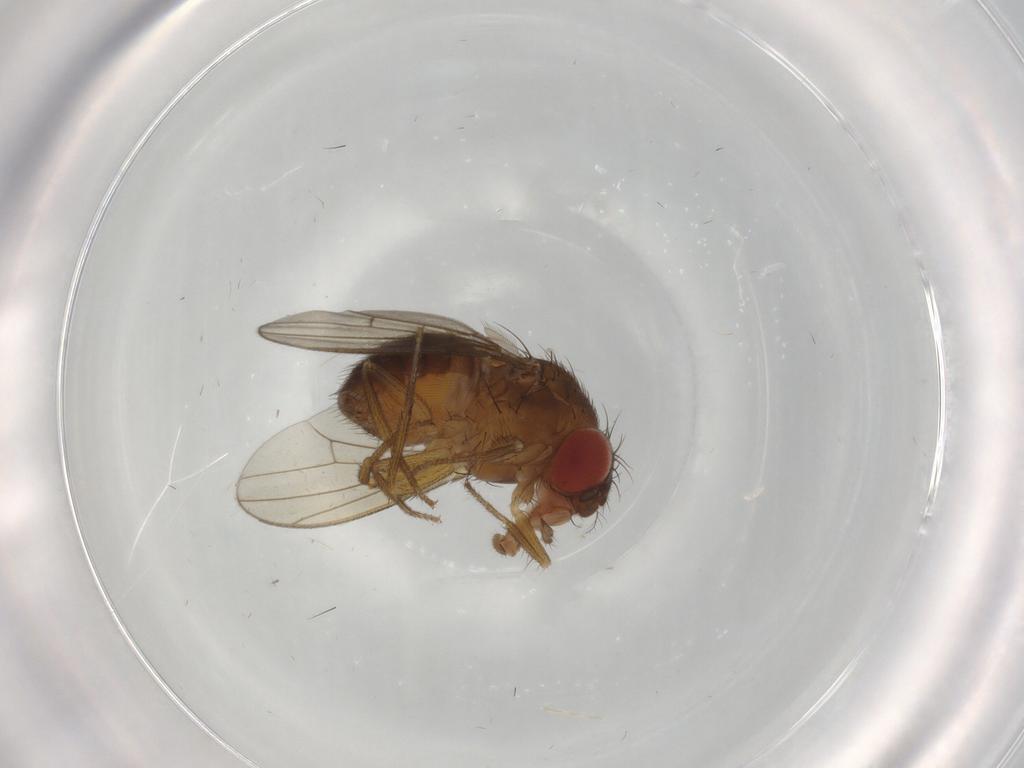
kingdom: Animalia
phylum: Arthropoda
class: Insecta
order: Diptera
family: Drosophilidae
